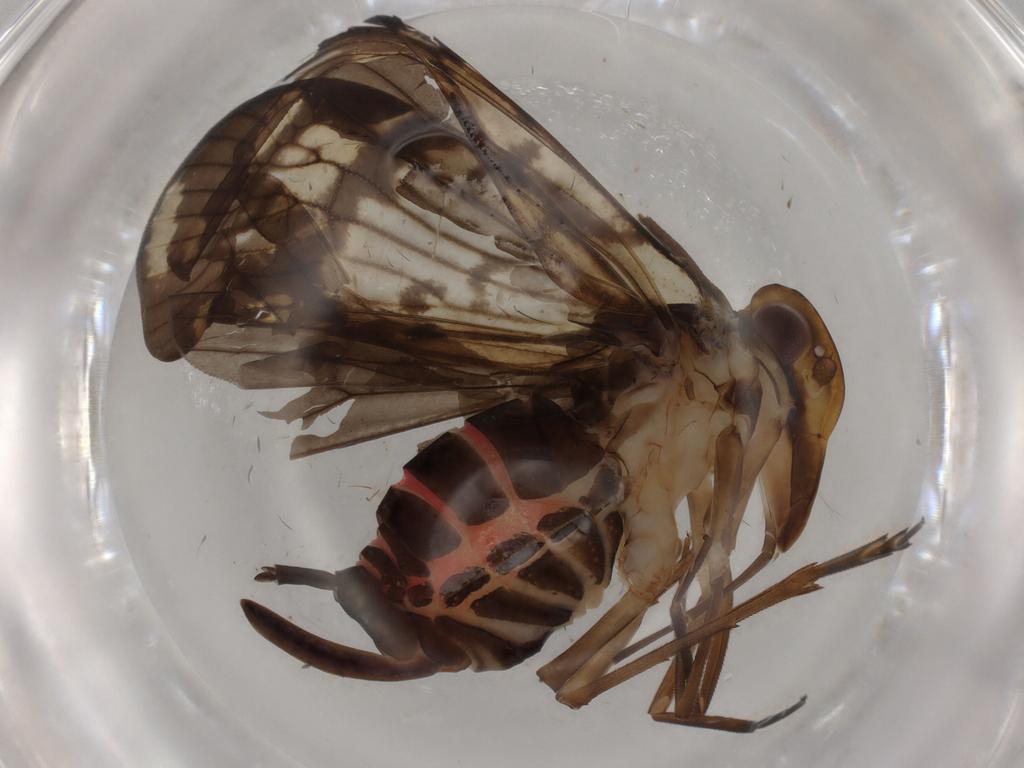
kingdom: Animalia
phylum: Arthropoda
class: Insecta
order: Hemiptera
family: Cixiidae
